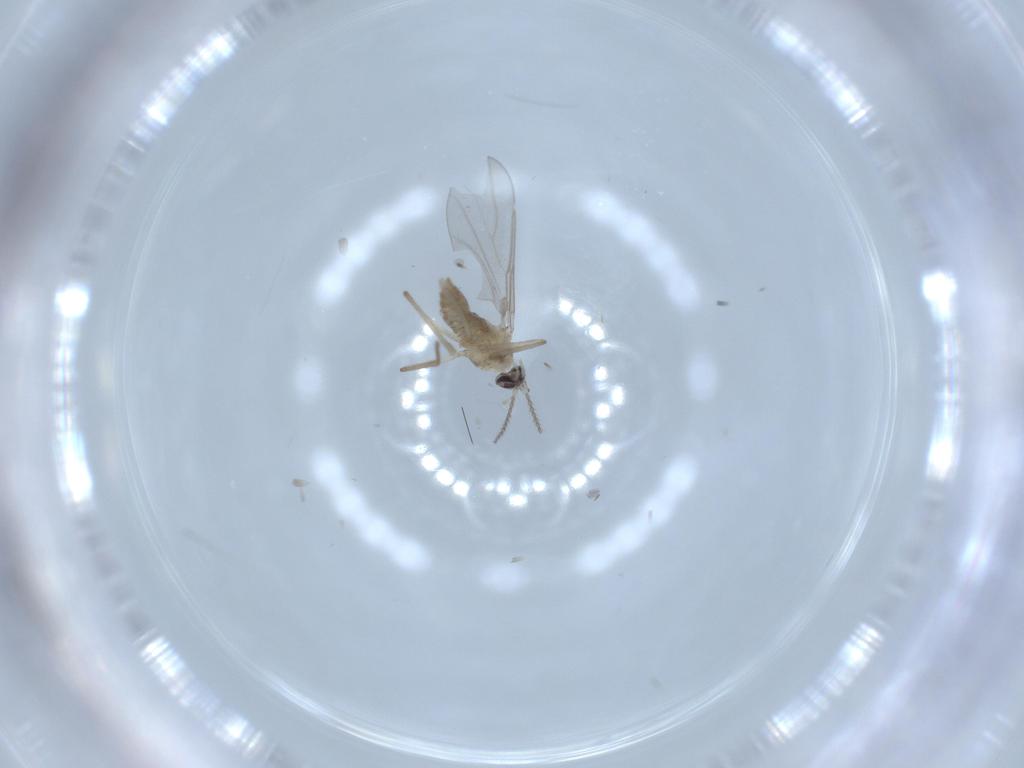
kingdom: Animalia
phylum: Arthropoda
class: Insecta
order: Diptera
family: Cecidomyiidae
